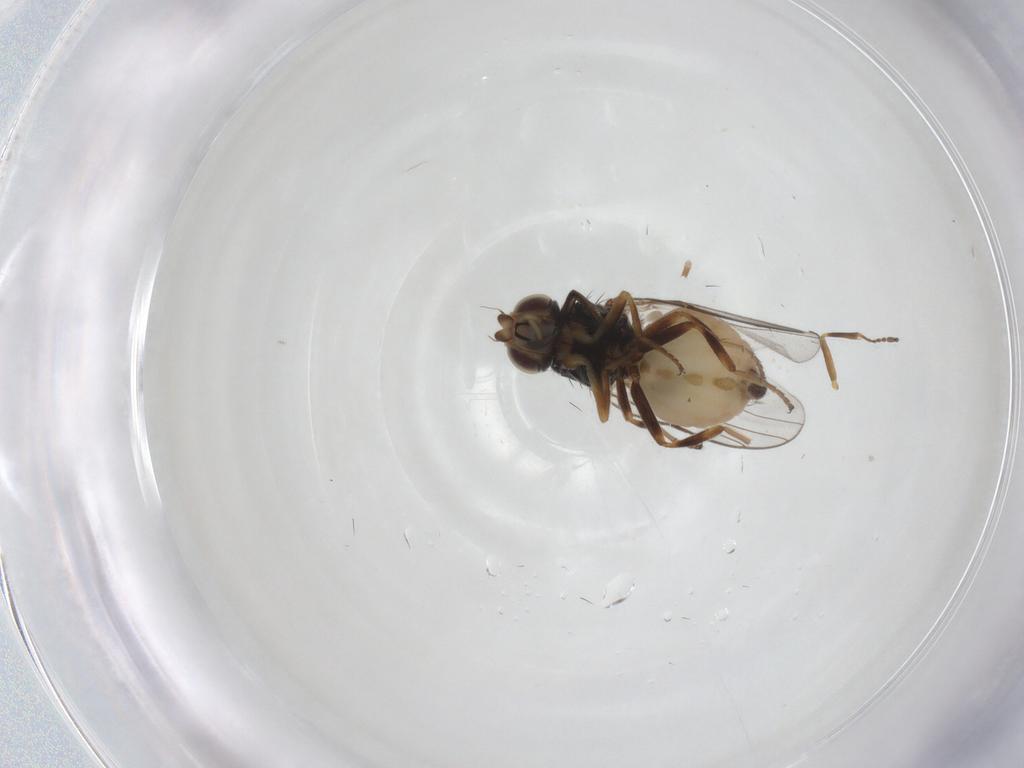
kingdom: Animalia
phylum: Arthropoda
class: Insecta
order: Diptera
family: Chloropidae
